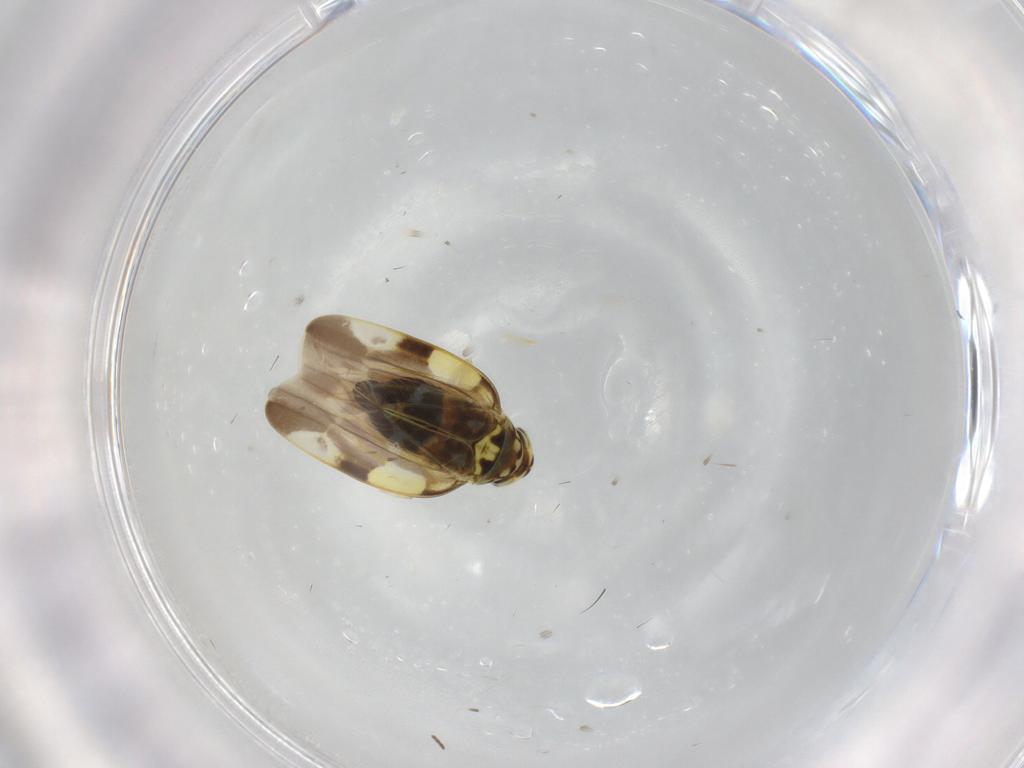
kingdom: Animalia
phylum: Arthropoda
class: Insecta
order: Hemiptera
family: Cicadellidae
